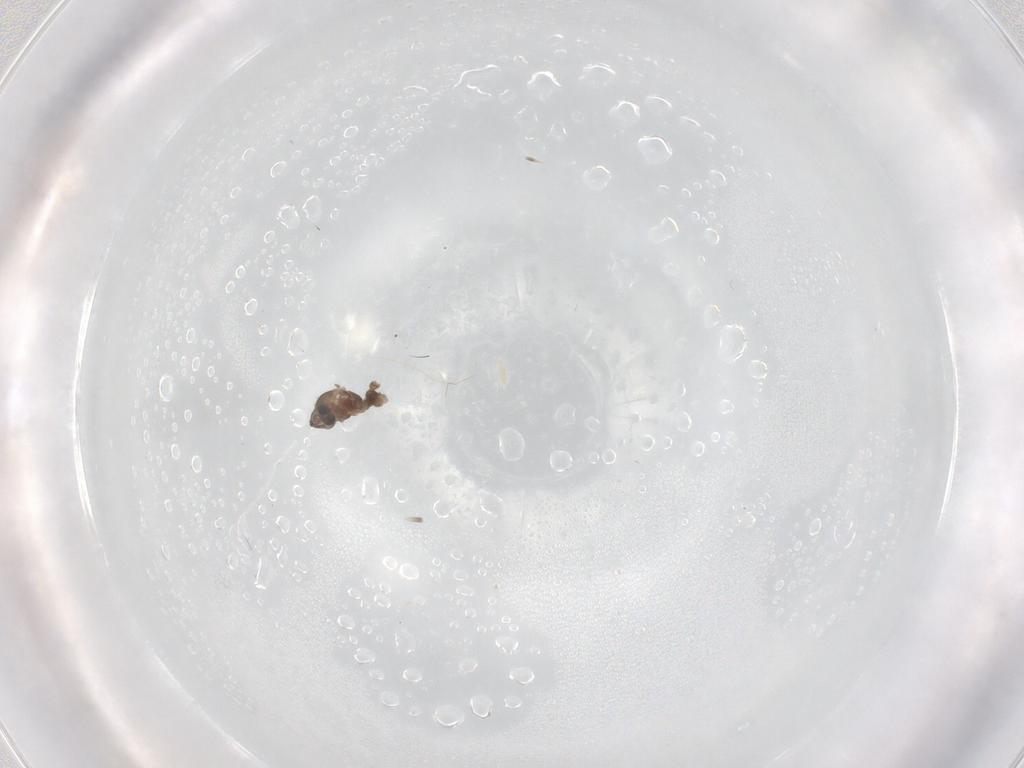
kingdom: Animalia
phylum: Arthropoda
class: Insecta
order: Diptera
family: Cecidomyiidae
